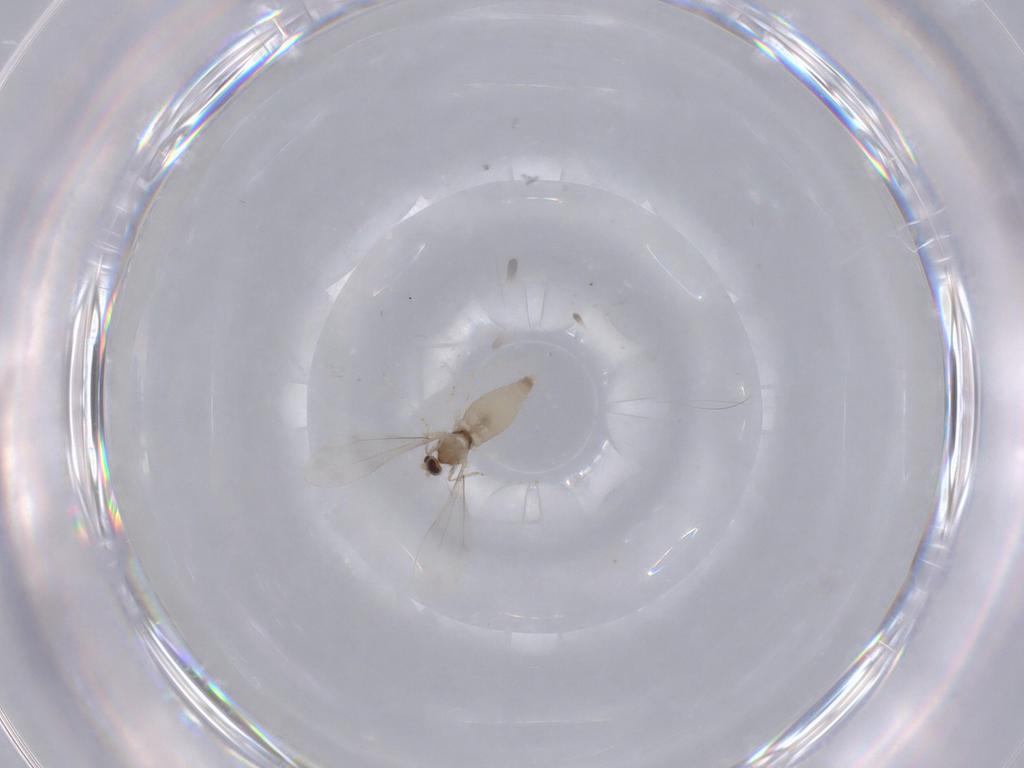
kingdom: Animalia
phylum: Arthropoda
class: Insecta
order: Diptera
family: Cecidomyiidae
